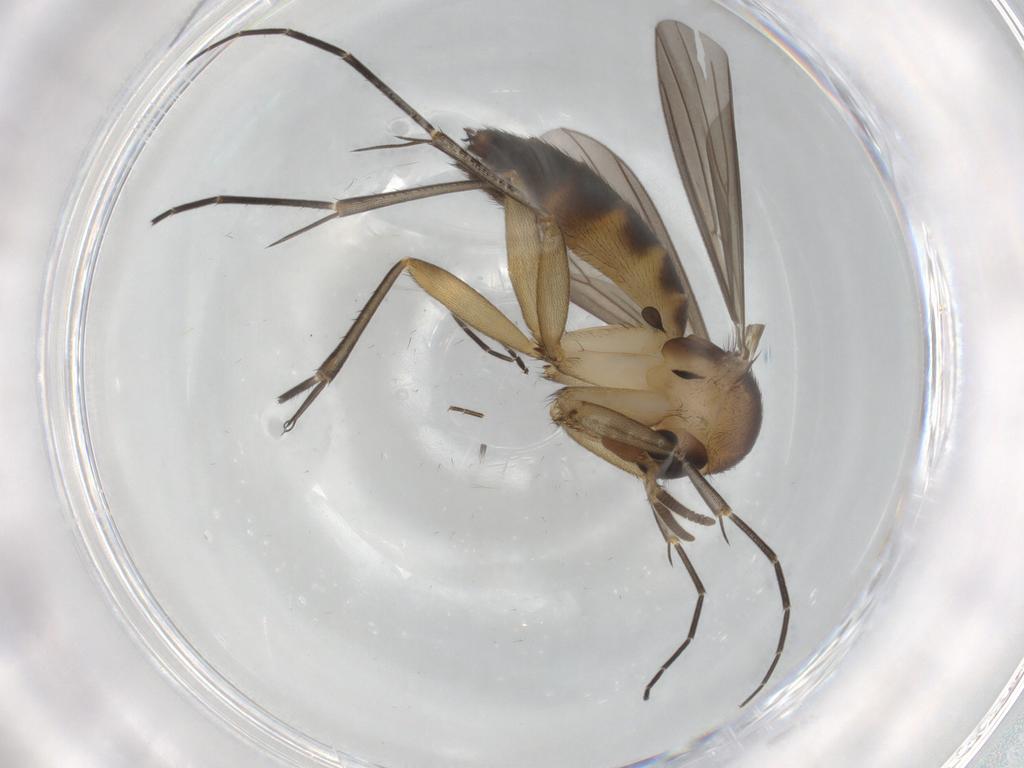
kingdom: Animalia
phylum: Arthropoda
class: Insecta
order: Diptera
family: Mycetophilidae
